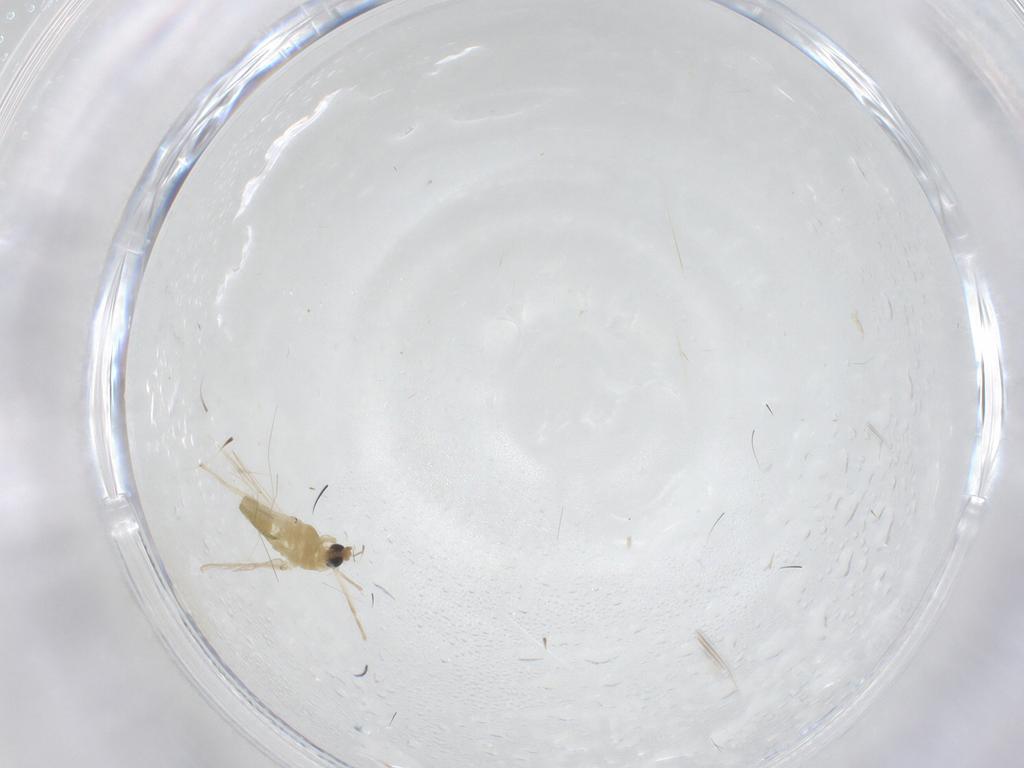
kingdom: Animalia
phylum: Arthropoda
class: Insecta
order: Diptera
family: Chironomidae
